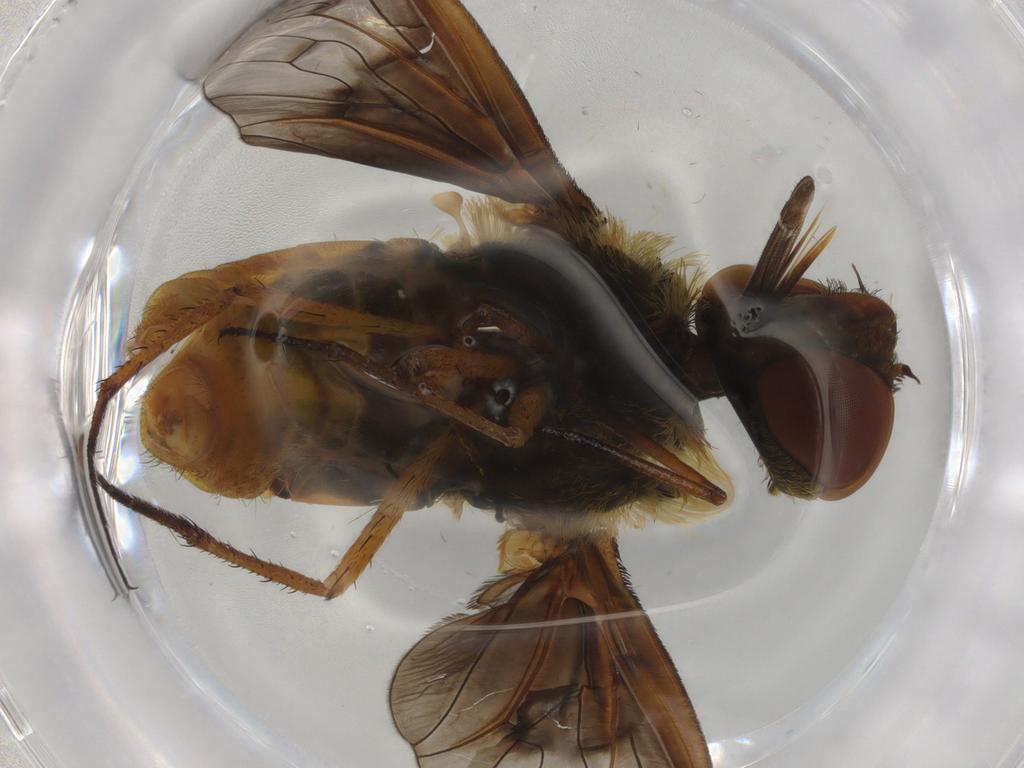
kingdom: Animalia
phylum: Arthropoda
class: Insecta
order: Diptera
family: Bombyliidae
